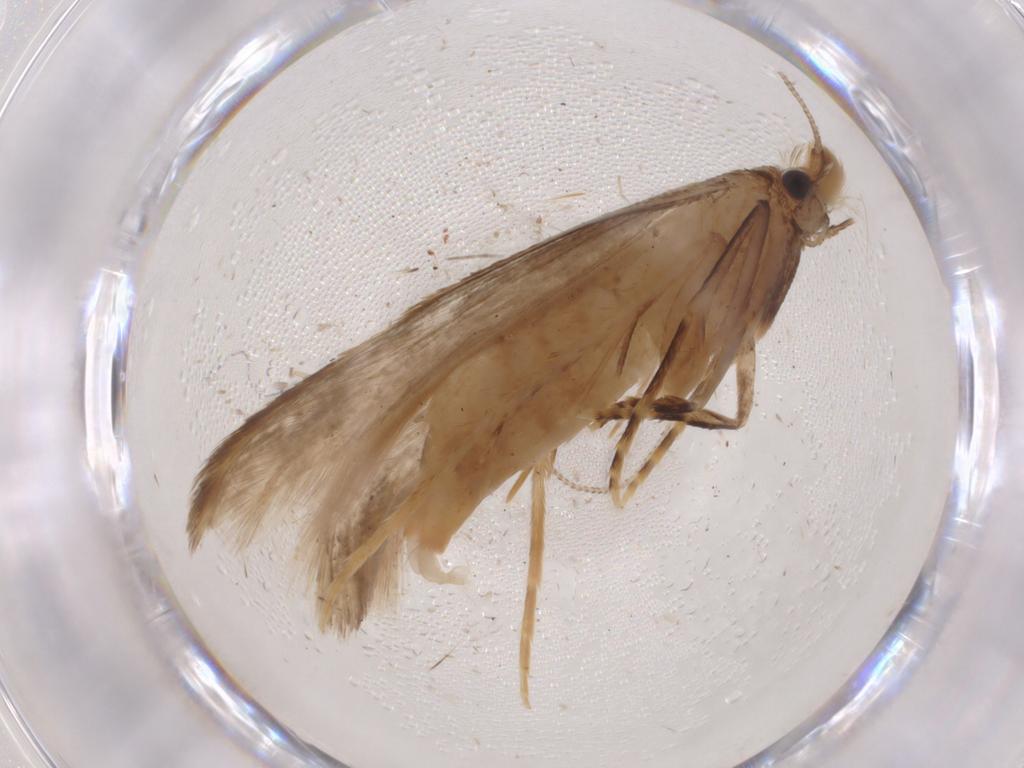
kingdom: Animalia
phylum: Arthropoda
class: Insecta
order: Lepidoptera
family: Tineidae
